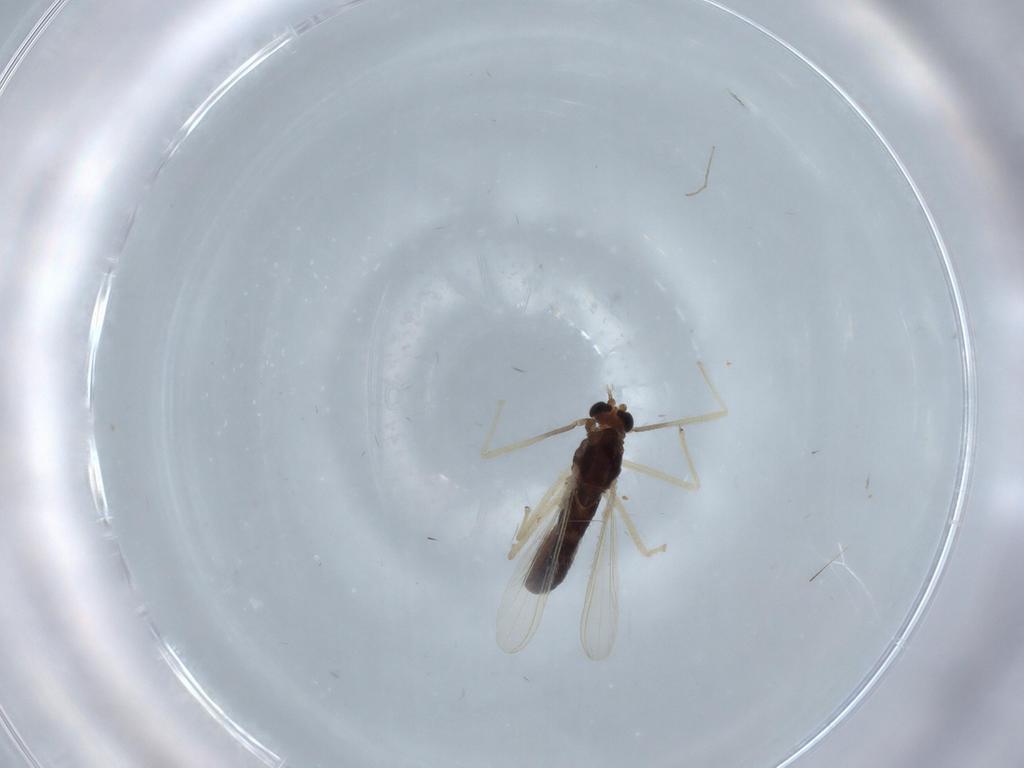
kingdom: Animalia
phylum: Arthropoda
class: Insecta
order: Diptera
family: Chironomidae
